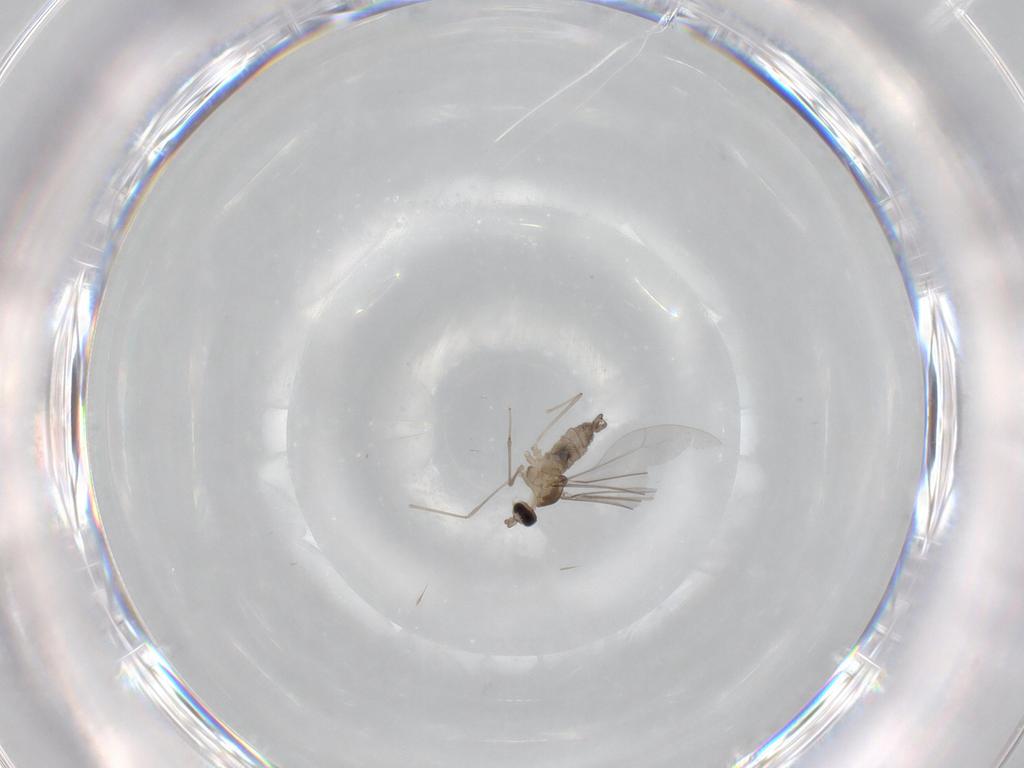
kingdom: Animalia
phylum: Arthropoda
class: Insecta
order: Diptera
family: Cecidomyiidae
